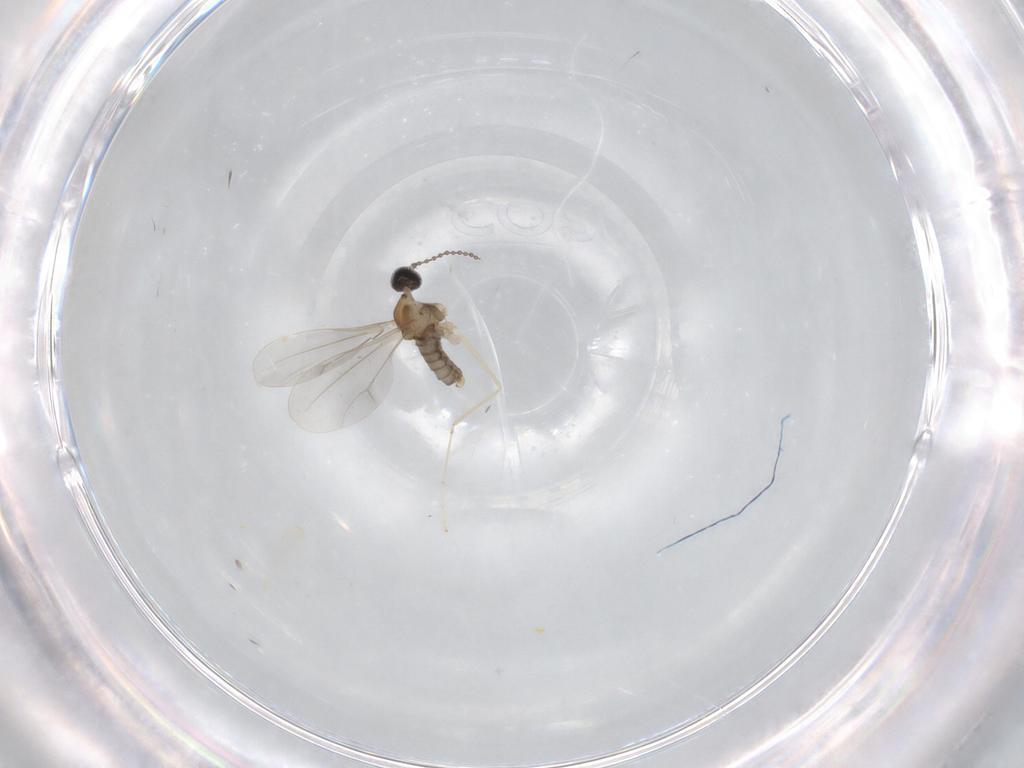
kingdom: Animalia
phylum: Arthropoda
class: Insecta
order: Diptera
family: Cecidomyiidae
